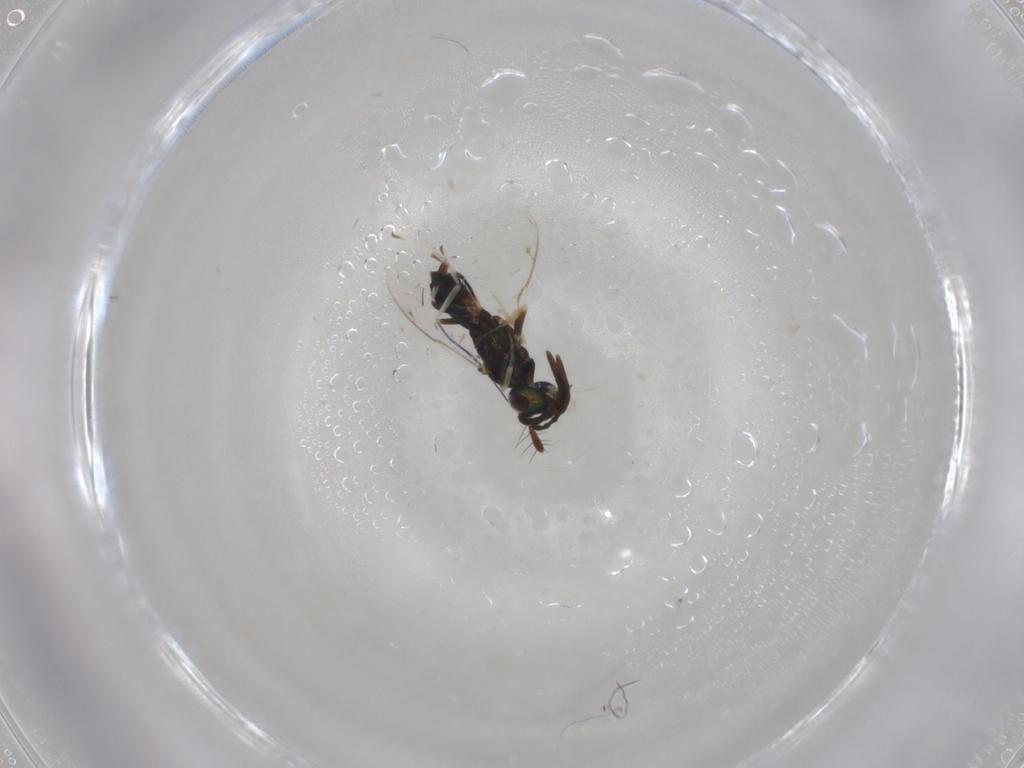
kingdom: Animalia
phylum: Arthropoda
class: Insecta
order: Hymenoptera
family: Eupelmidae
